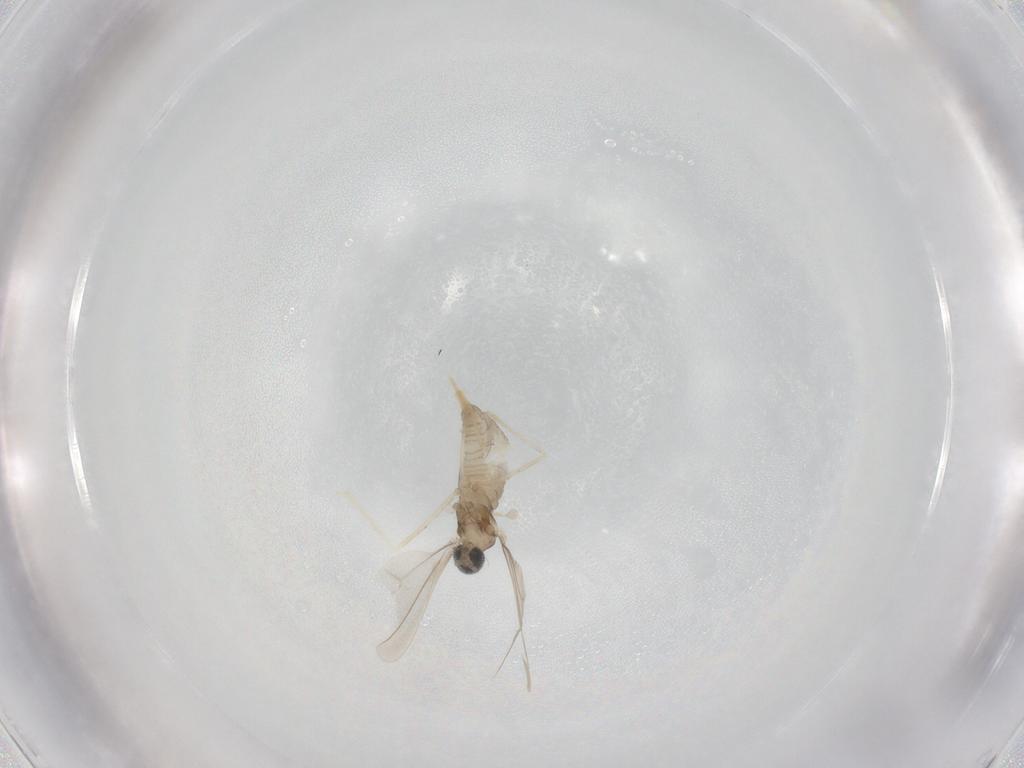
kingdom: Animalia
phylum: Arthropoda
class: Insecta
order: Diptera
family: Cecidomyiidae
